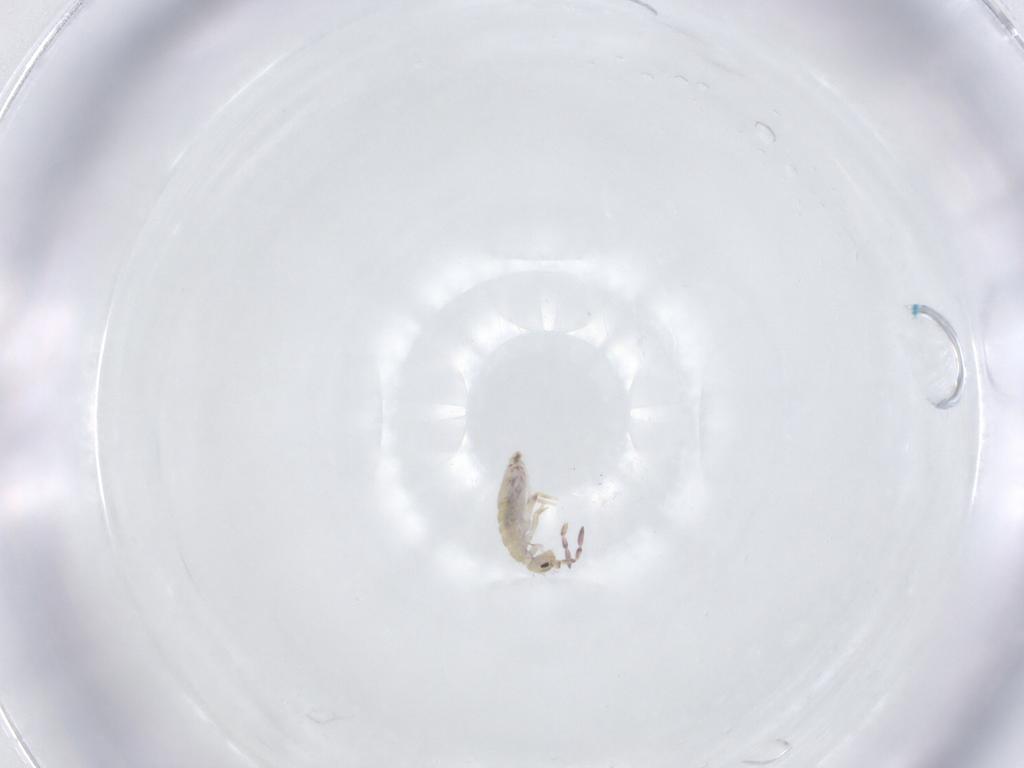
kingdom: Animalia
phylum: Arthropoda
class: Collembola
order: Entomobryomorpha
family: Entomobryidae
